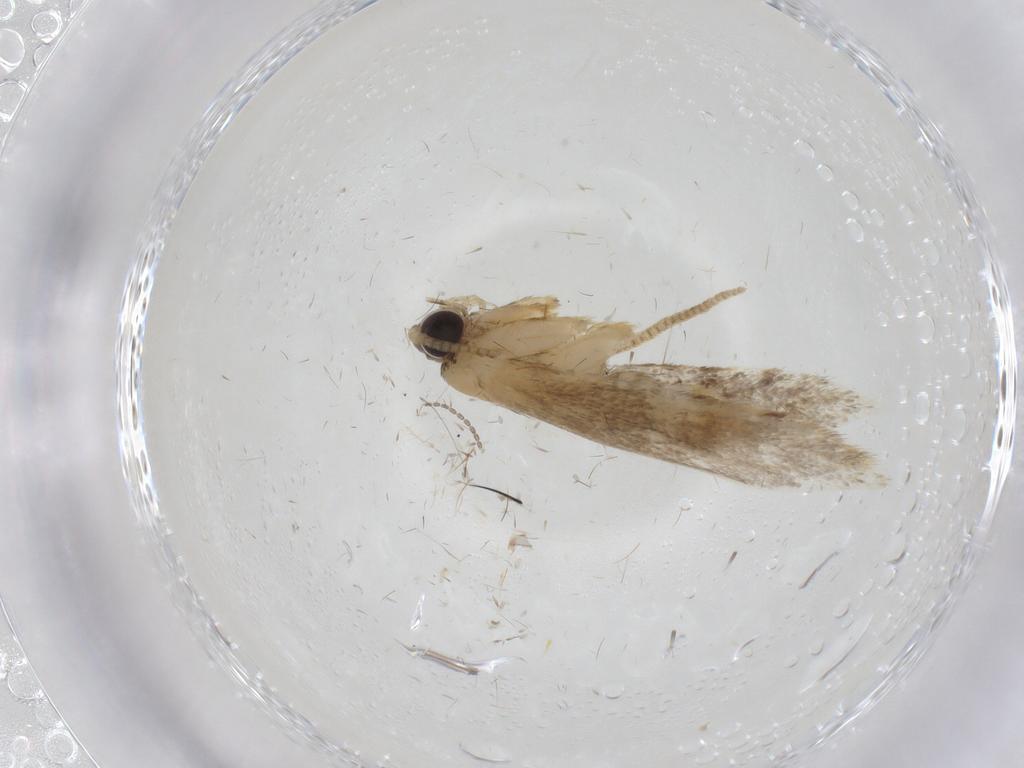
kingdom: Animalia
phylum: Arthropoda
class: Insecta
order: Lepidoptera
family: Tineidae
